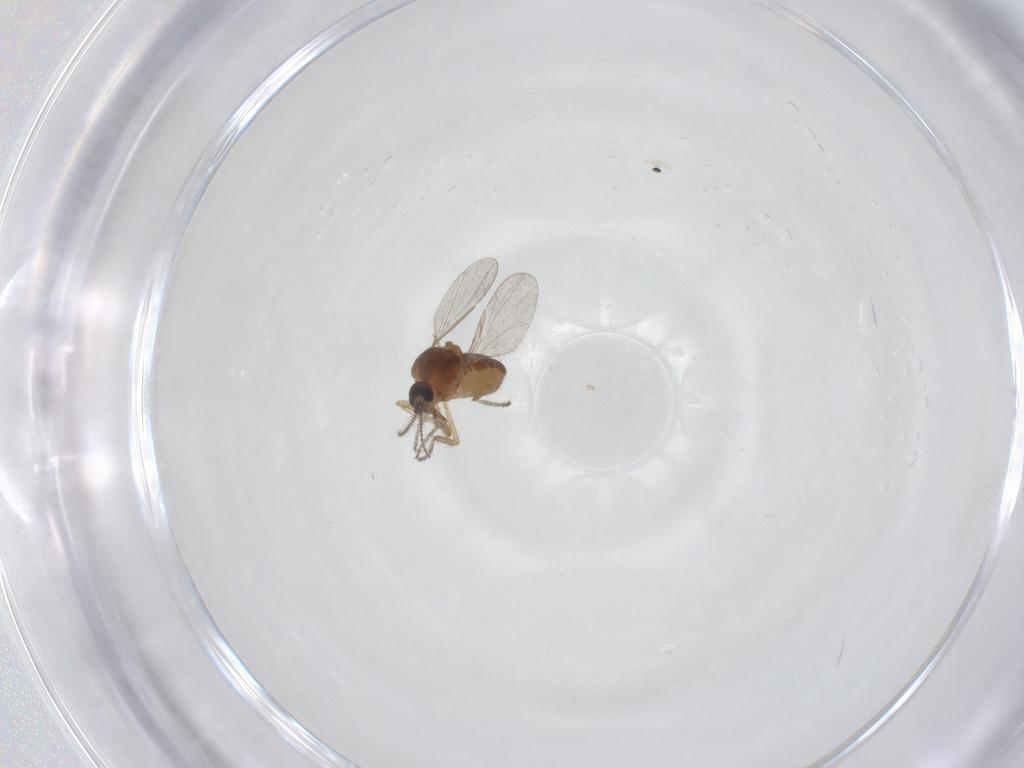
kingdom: Animalia
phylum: Arthropoda
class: Insecta
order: Diptera
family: Ceratopogonidae
